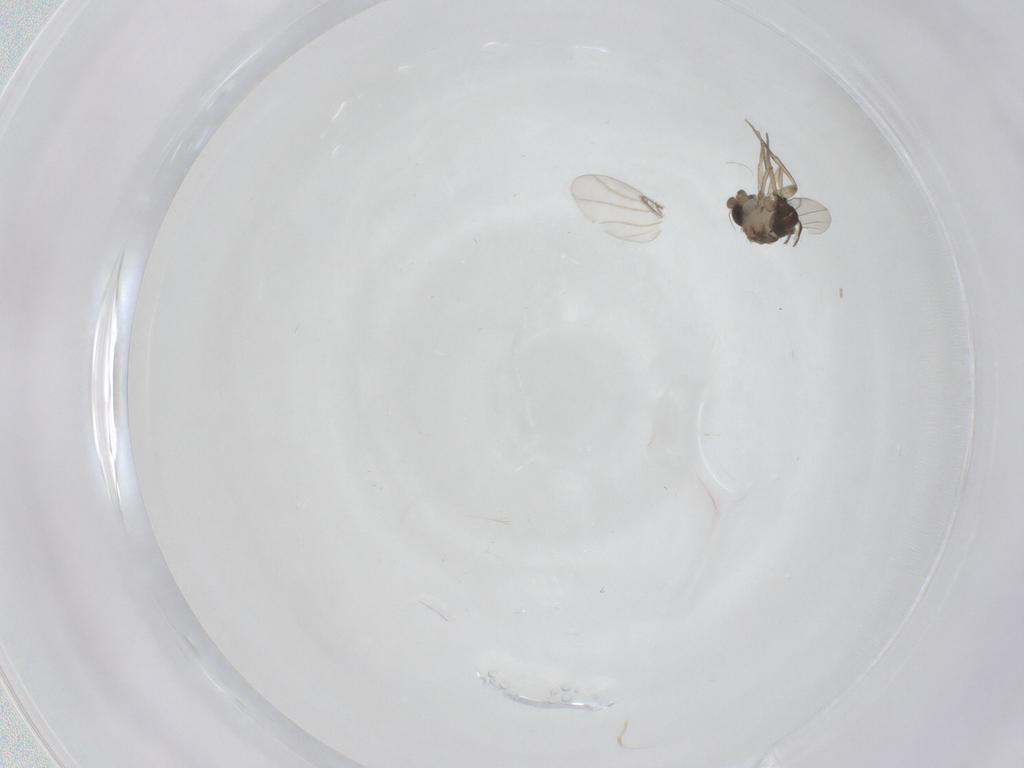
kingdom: Animalia
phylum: Arthropoda
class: Insecta
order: Diptera
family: Phoridae
